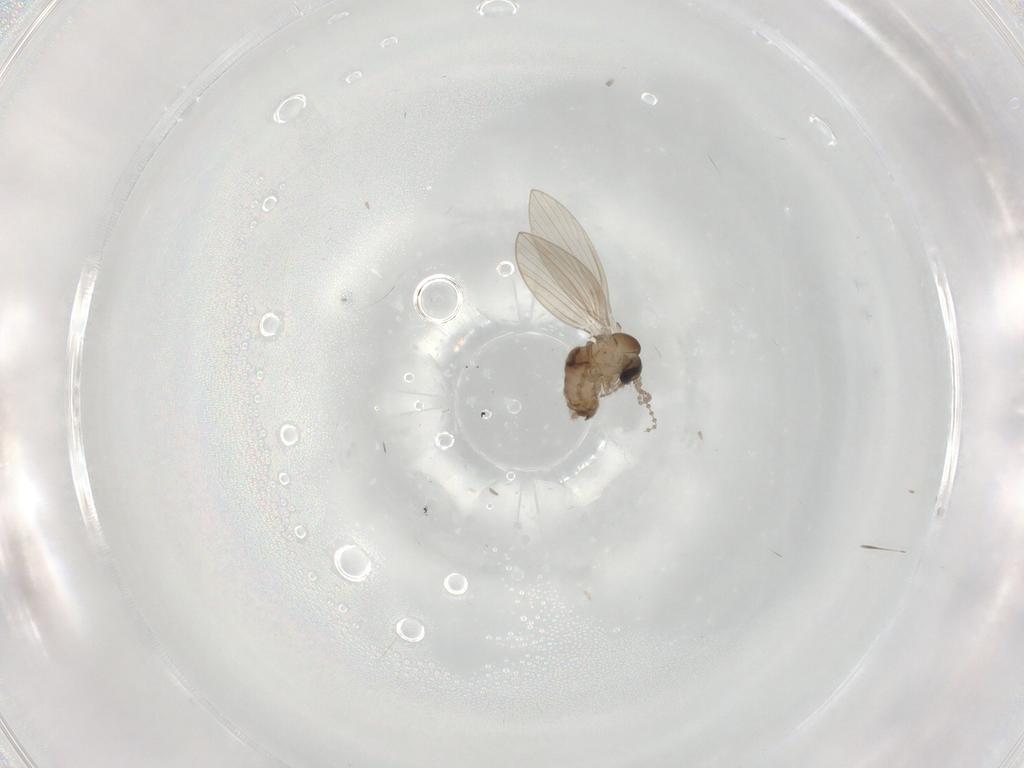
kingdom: Animalia
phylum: Arthropoda
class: Insecta
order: Diptera
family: Psychodidae
